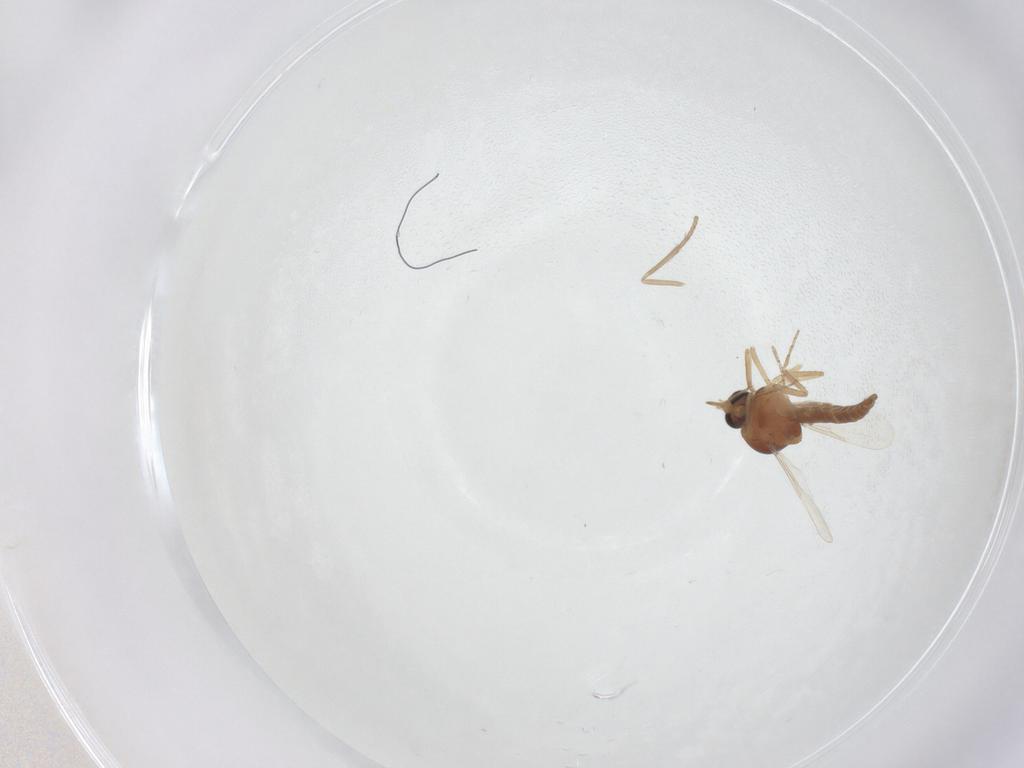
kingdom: Animalia
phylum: Arthropoda
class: Insecta
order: Diptera
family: Ceratopogonidae
